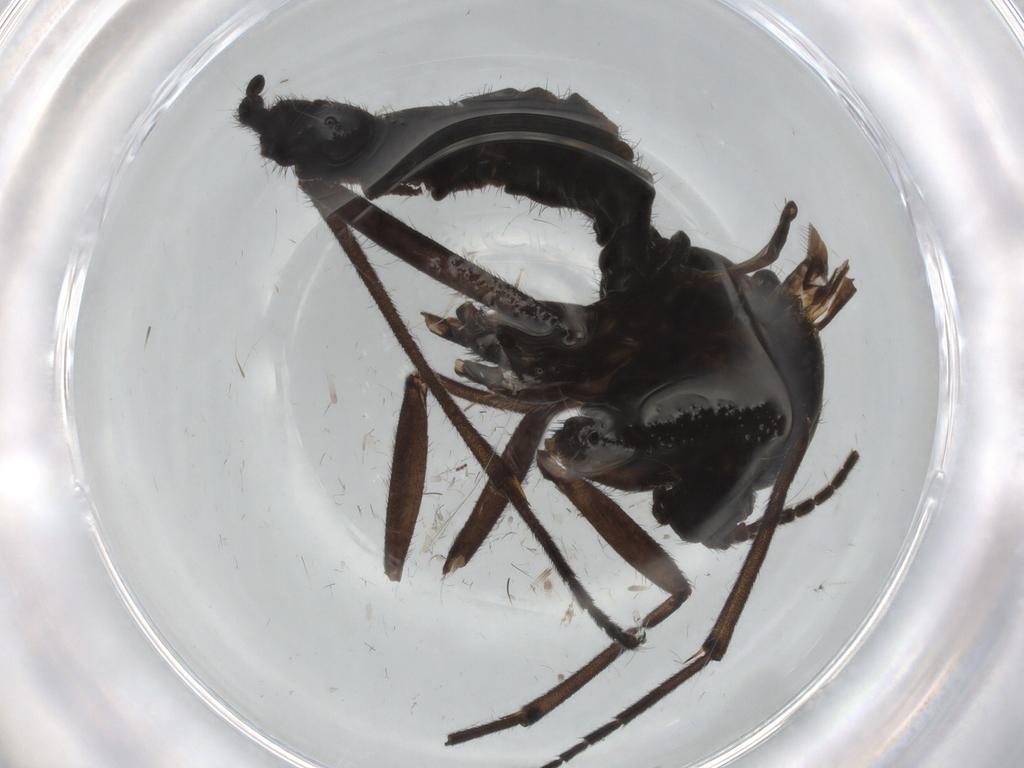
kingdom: Animalia
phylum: Arthropoda
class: Insecta
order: Diptera
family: Sciaridae
